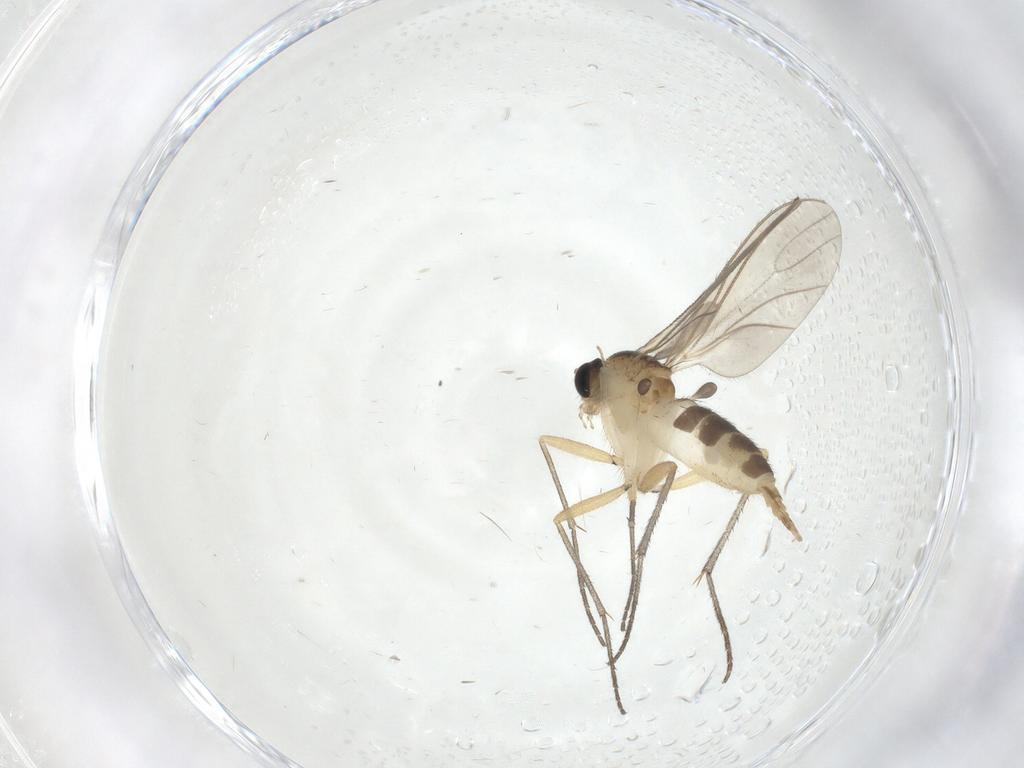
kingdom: Animalia
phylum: Arthropoda
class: Insecta
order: Diptera
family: Sciaridae
